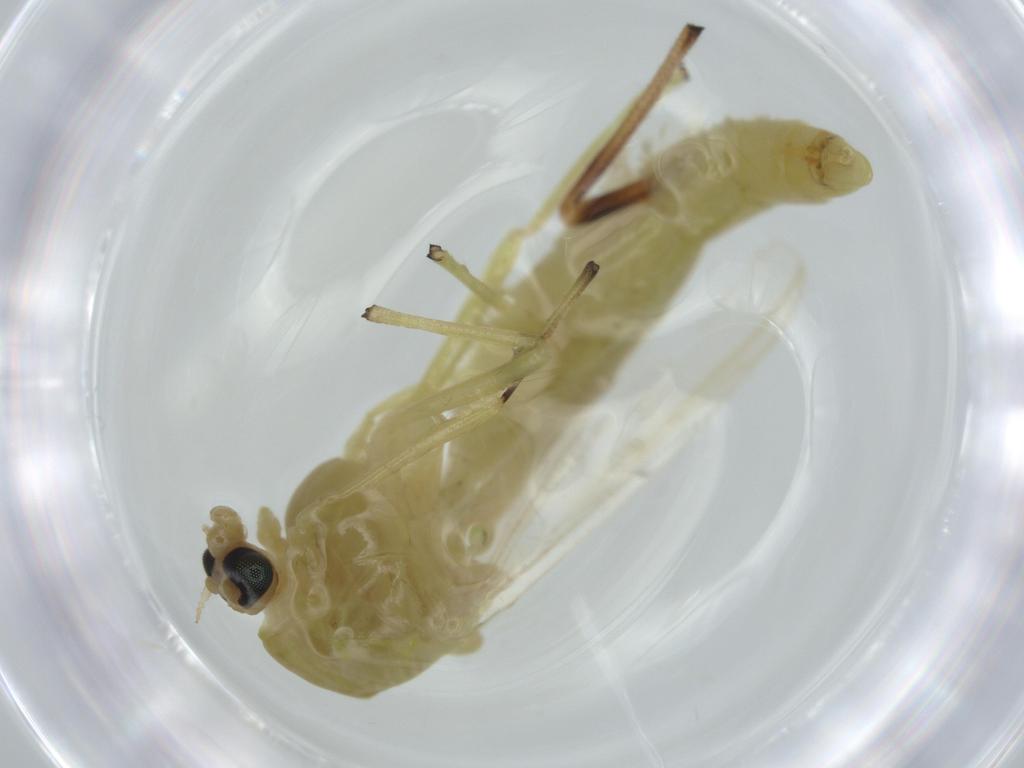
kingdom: Animalia
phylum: Arthropoda
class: Insecta
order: Diptera
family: Chironomidae
